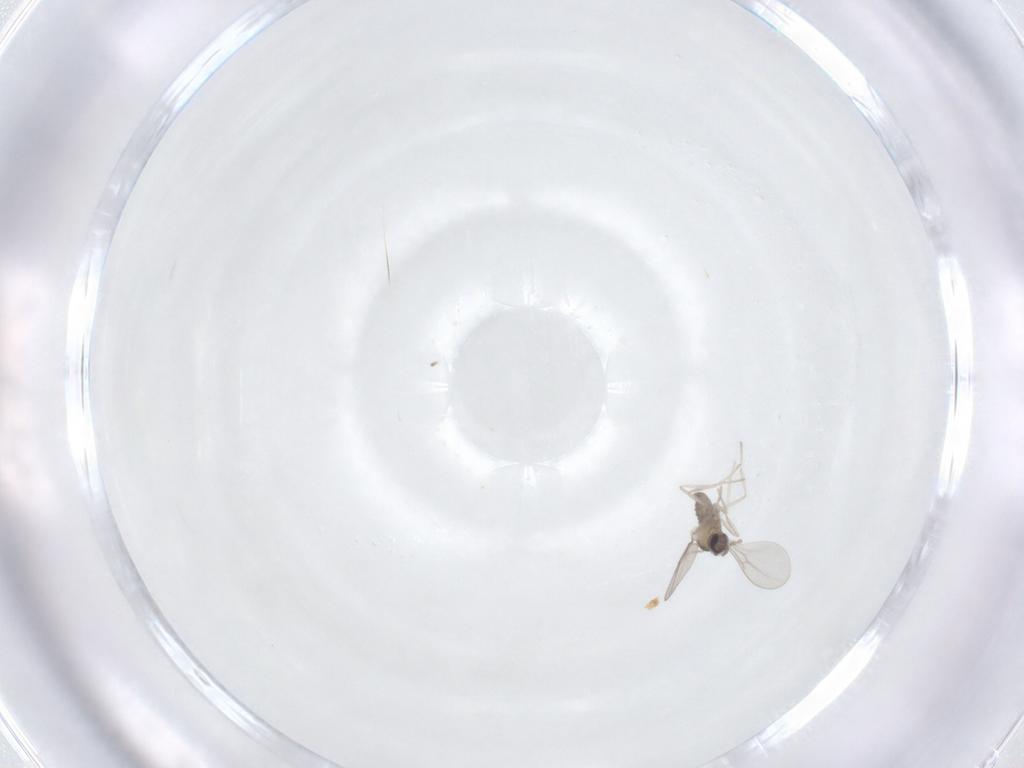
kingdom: Animalia
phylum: Arthropoda
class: Insecta
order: Diptera
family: Cecidomyiidae
